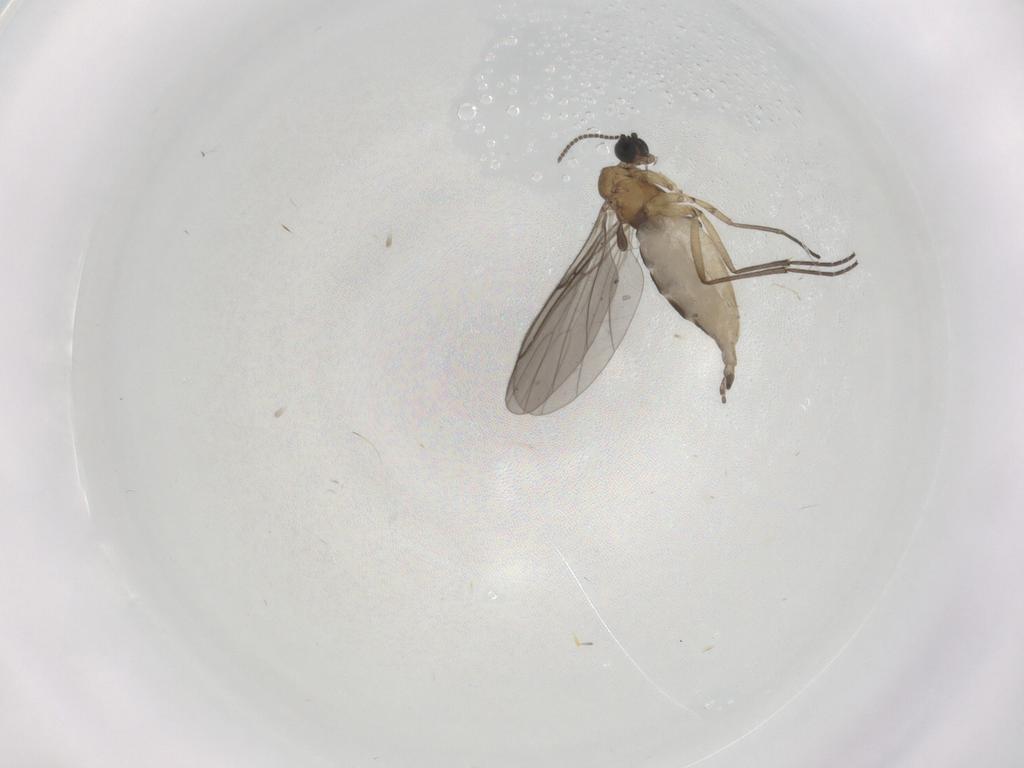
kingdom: Animalia
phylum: Arthropoda
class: Insecta
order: Diptera
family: Sciaridae
